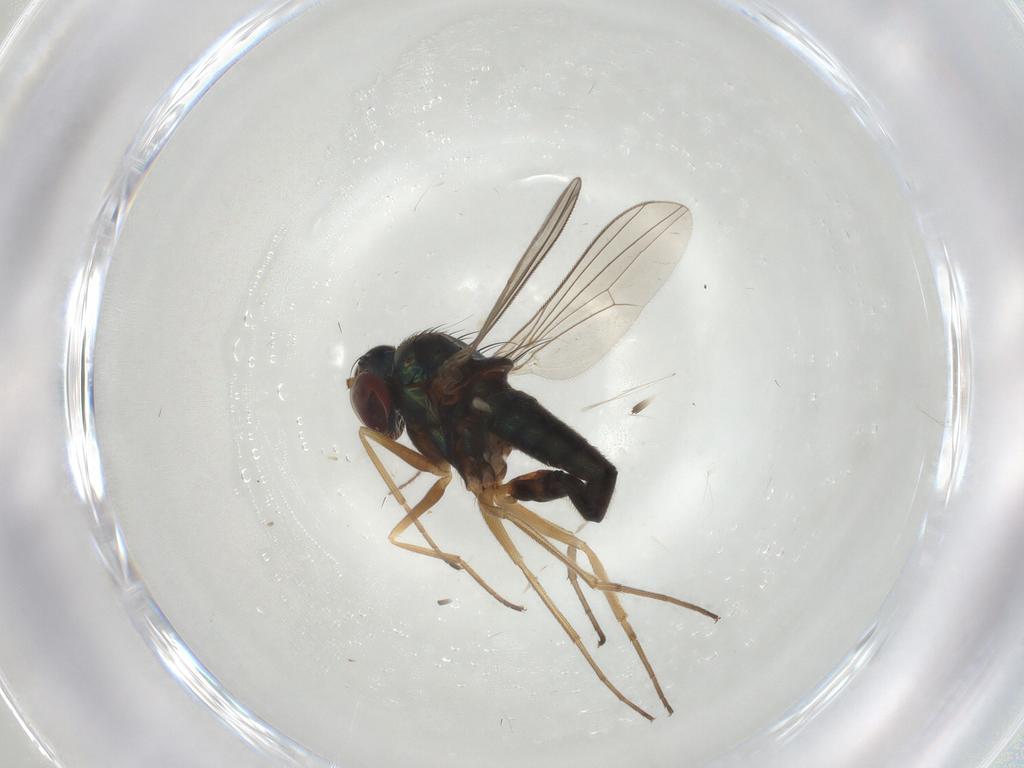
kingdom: Animalia
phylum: Arthropoda
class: Insecta
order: Diptera
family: Dolichopodidae
